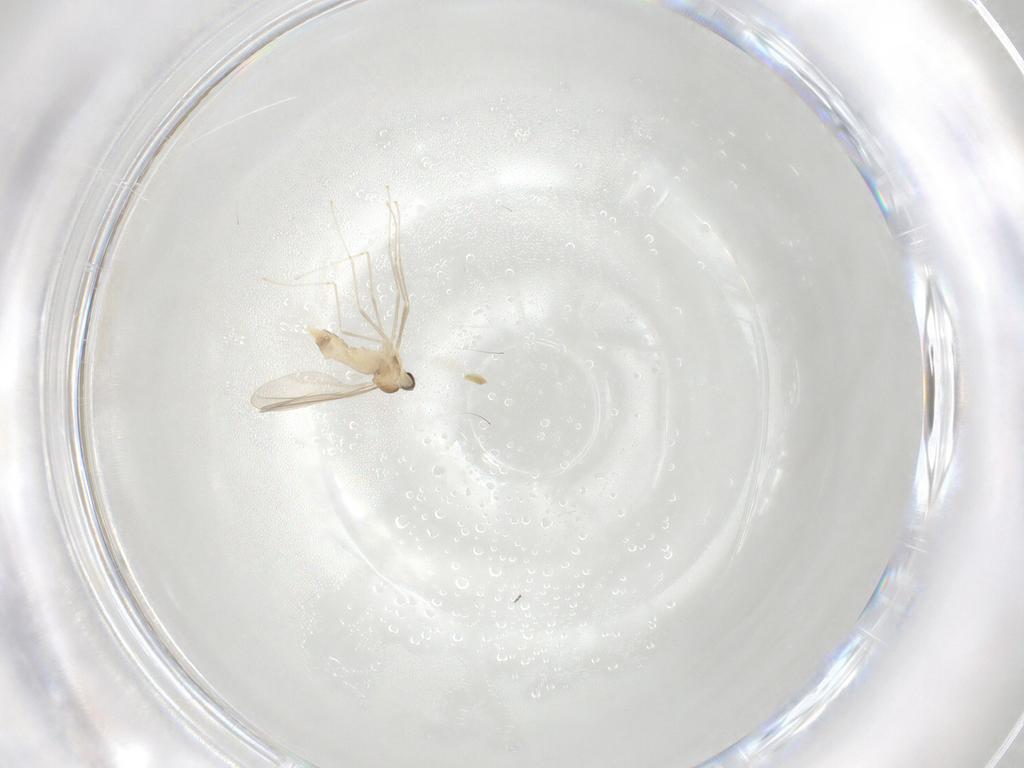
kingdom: Animalia
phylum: Arthropoda
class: Insecta
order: Diptera
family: Cecidomyiidae
